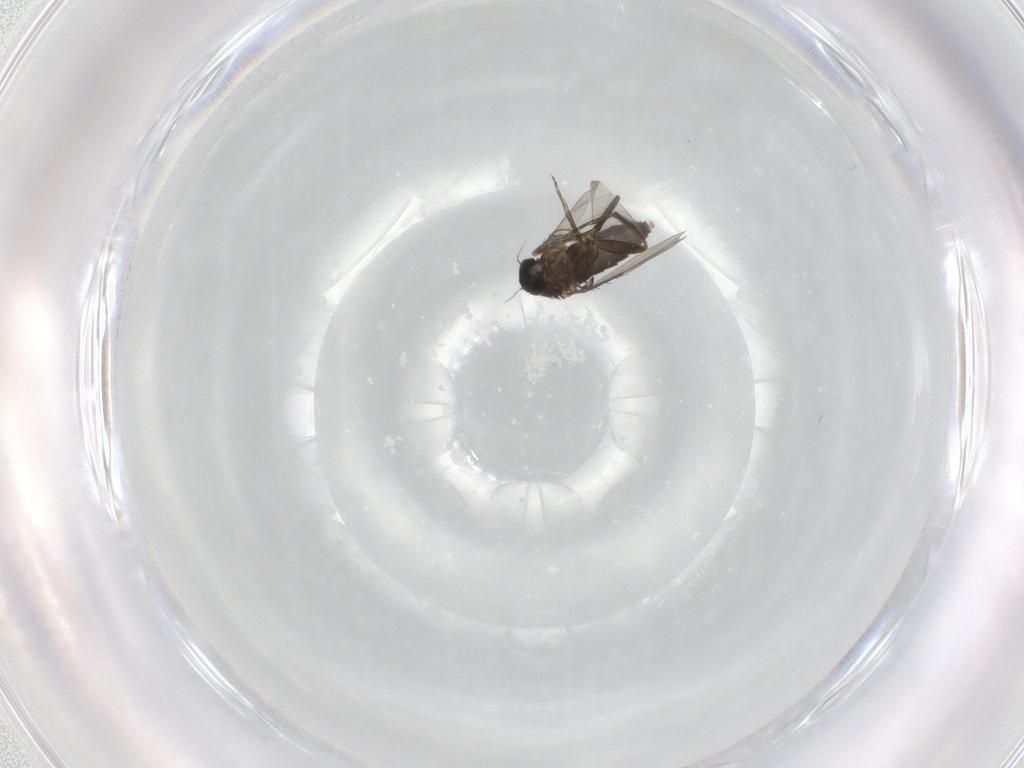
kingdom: Animalia
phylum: Arthropoda
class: Insecta
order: Diptera
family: Phoridae
